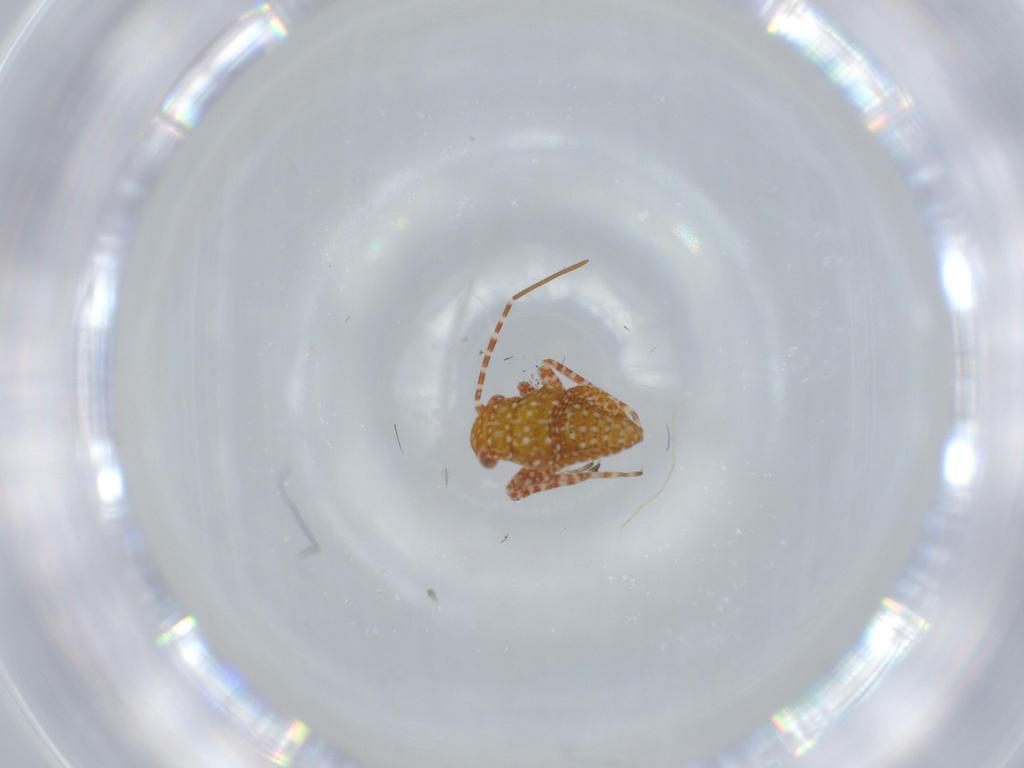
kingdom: Animalia
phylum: Arthropoda
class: Insecta
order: Hemiptera
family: Miridae
